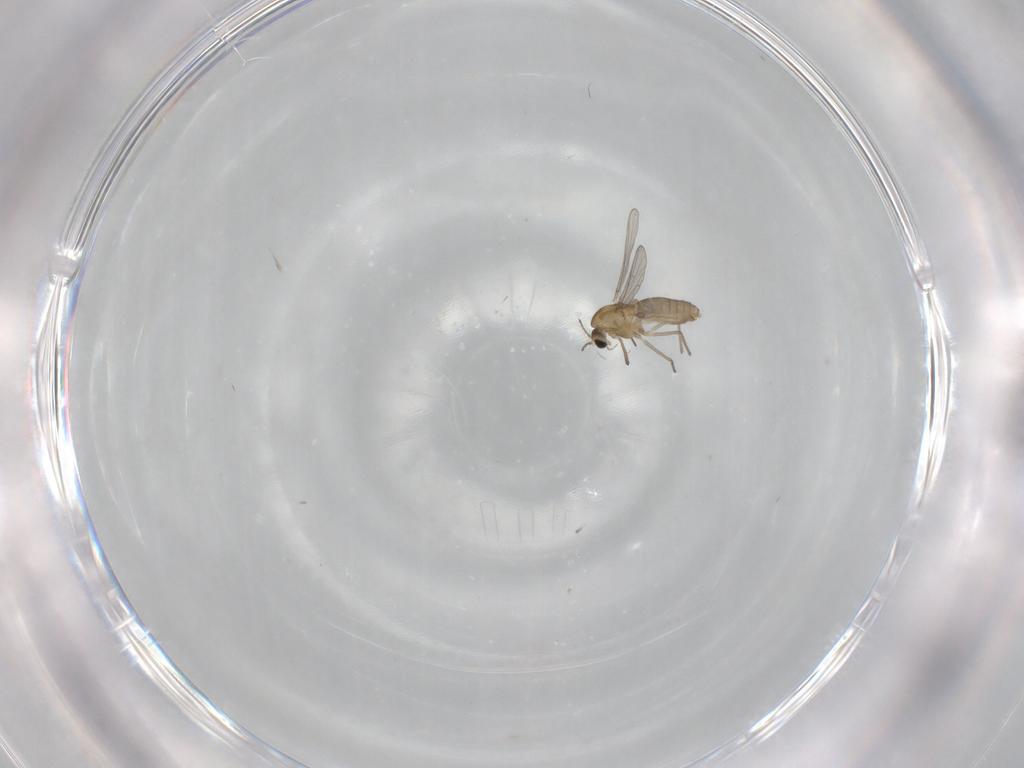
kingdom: Animalia
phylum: Arthropoda
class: Insecta
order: Diptera
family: Chironomidae
